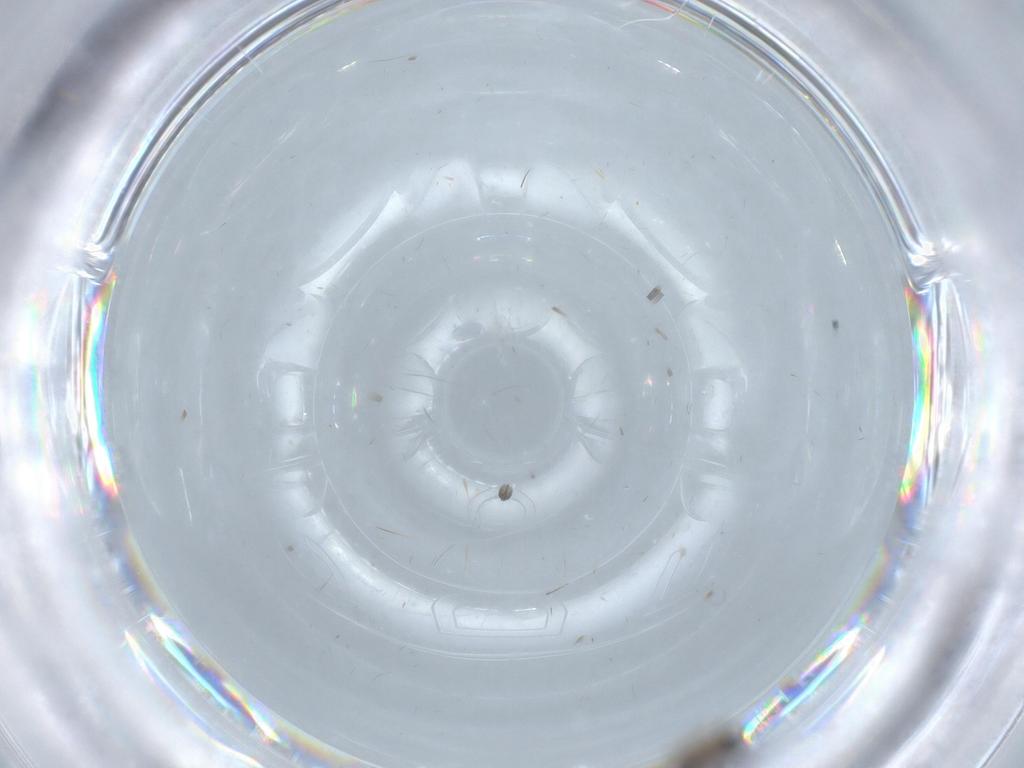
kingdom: Animalia
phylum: Arthropoda
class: Insecta
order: Diptera
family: Psychodidae
